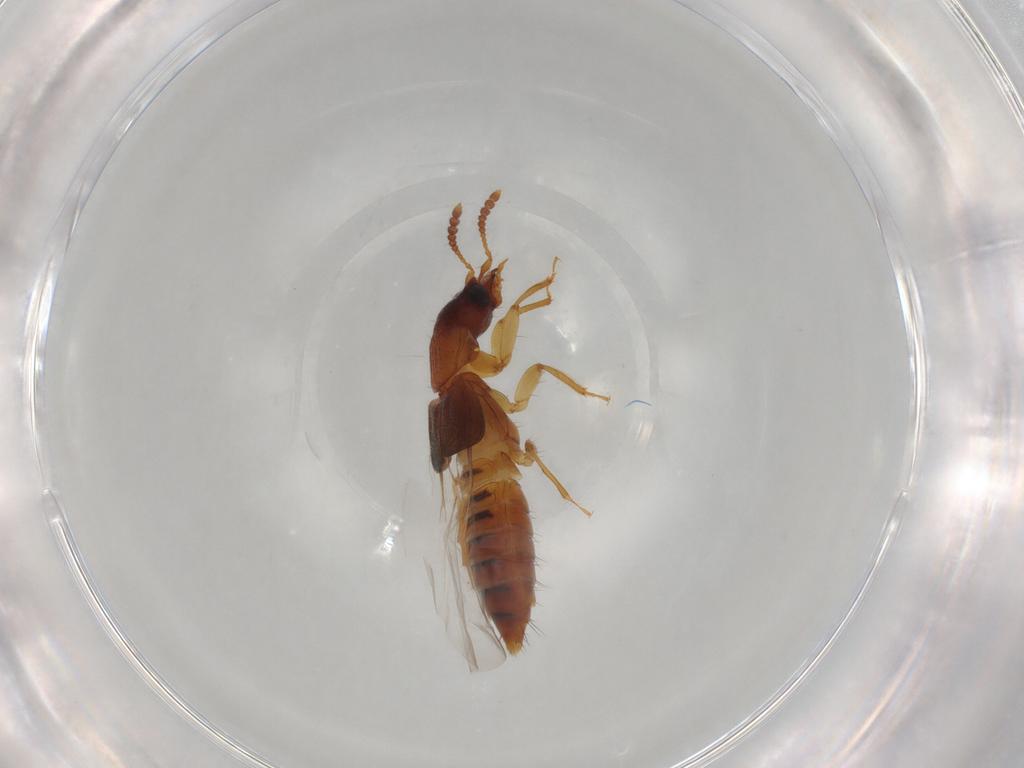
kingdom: Animalia
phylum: Arthropoda
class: Insecta
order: Coleoptera
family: Staphylinidae
